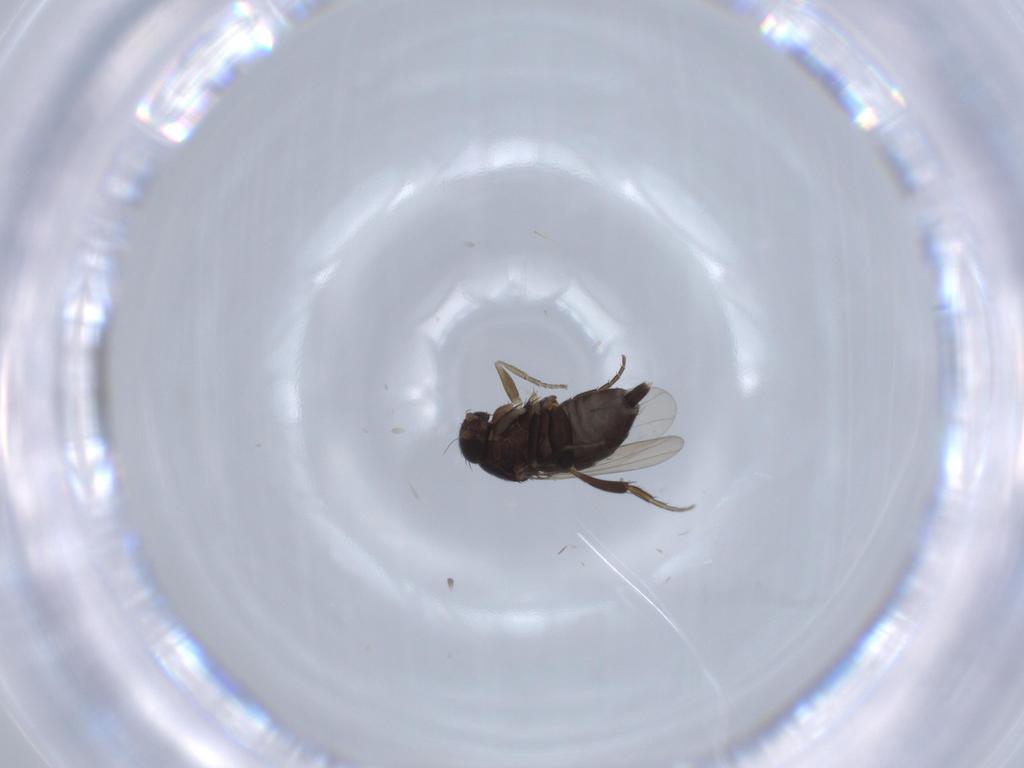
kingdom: Animalia
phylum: Arthropoda
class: Insecta
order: Diptera
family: Phoridae
